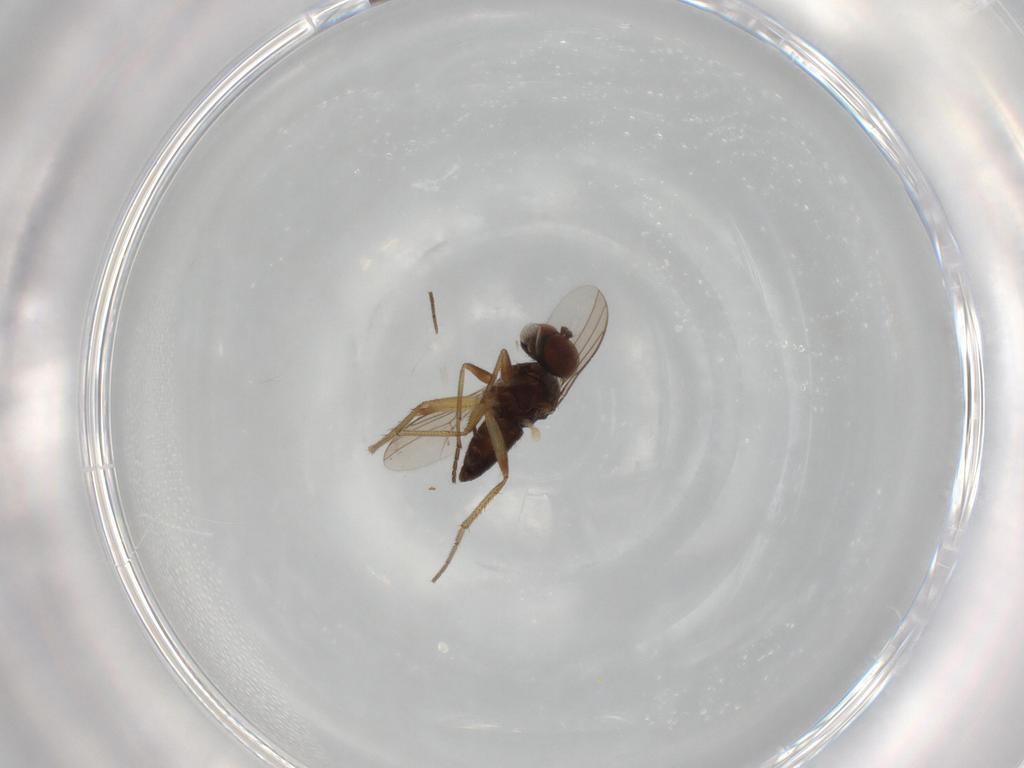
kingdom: Animalia
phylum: Arthropoda
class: Insecta
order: Diptera
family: Dolichopodidae
